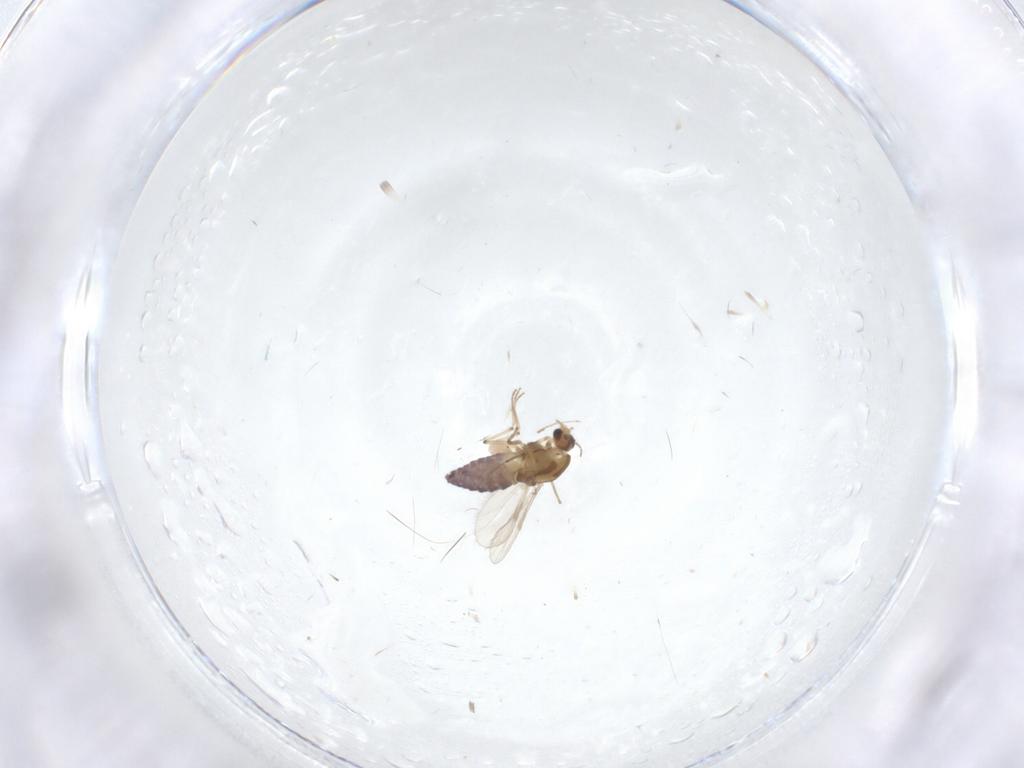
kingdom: Animalia
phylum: Arthropoda
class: Insecta
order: Diptera
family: Chironomidae
